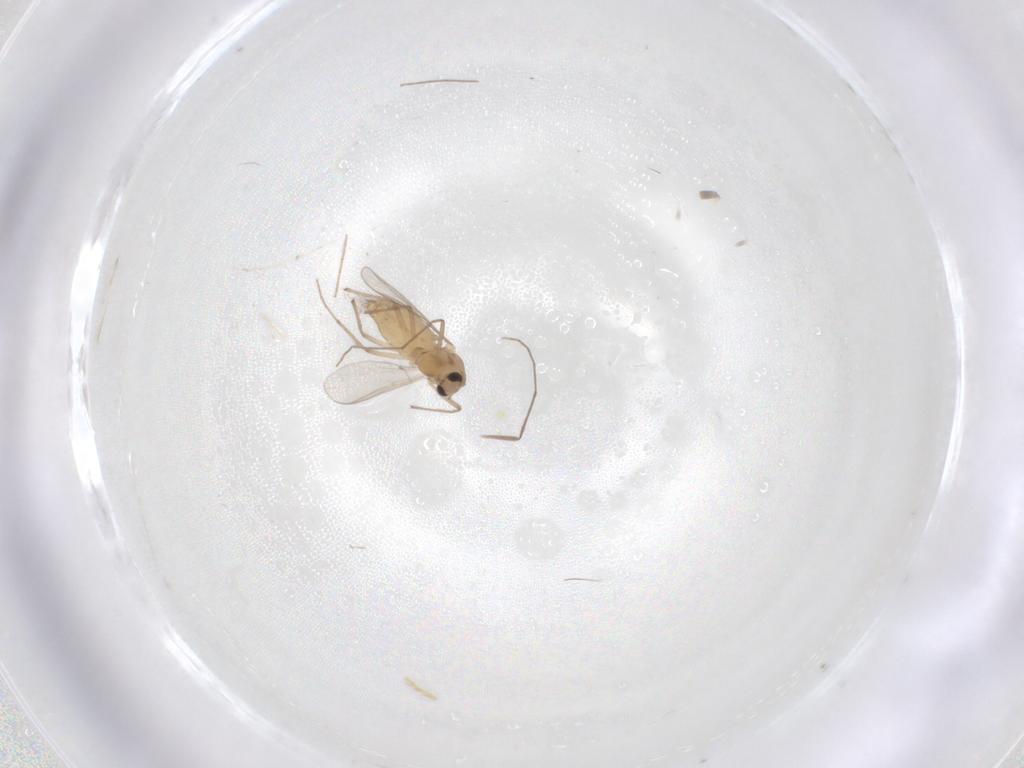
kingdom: Animalia
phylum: Arthropoda
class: Insecta
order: Diptera
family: Chironomidae
